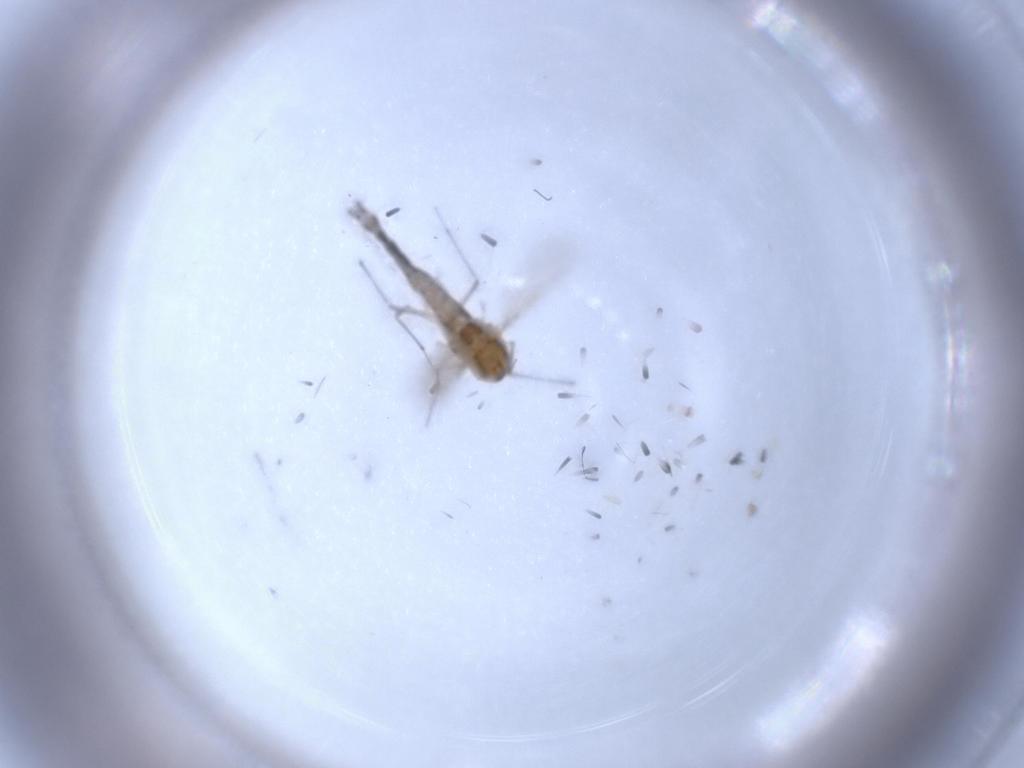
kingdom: Animalia
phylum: Arthropoda
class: Insecta
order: Diptera
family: Chironomidae
